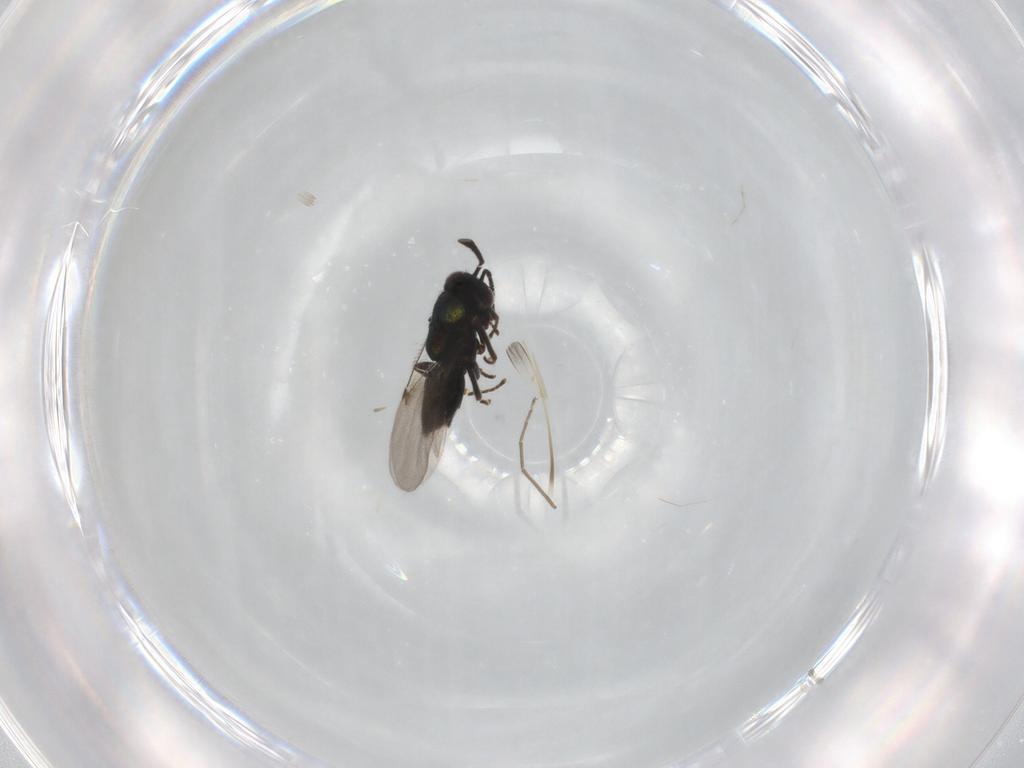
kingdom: Animalia
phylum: Arthropoda
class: Insecta
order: Hymenoptera
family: Encyrtidae
